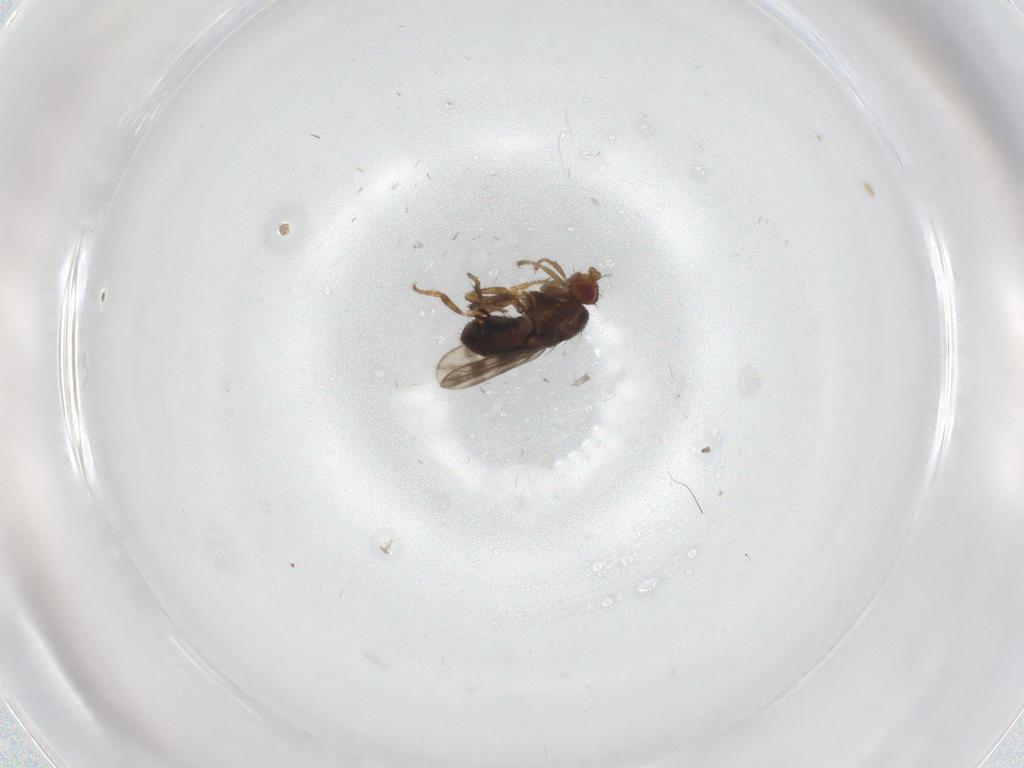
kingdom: Animalia
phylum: Arthropoda
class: Insecta
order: Diptera
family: Sphaeroceridae
